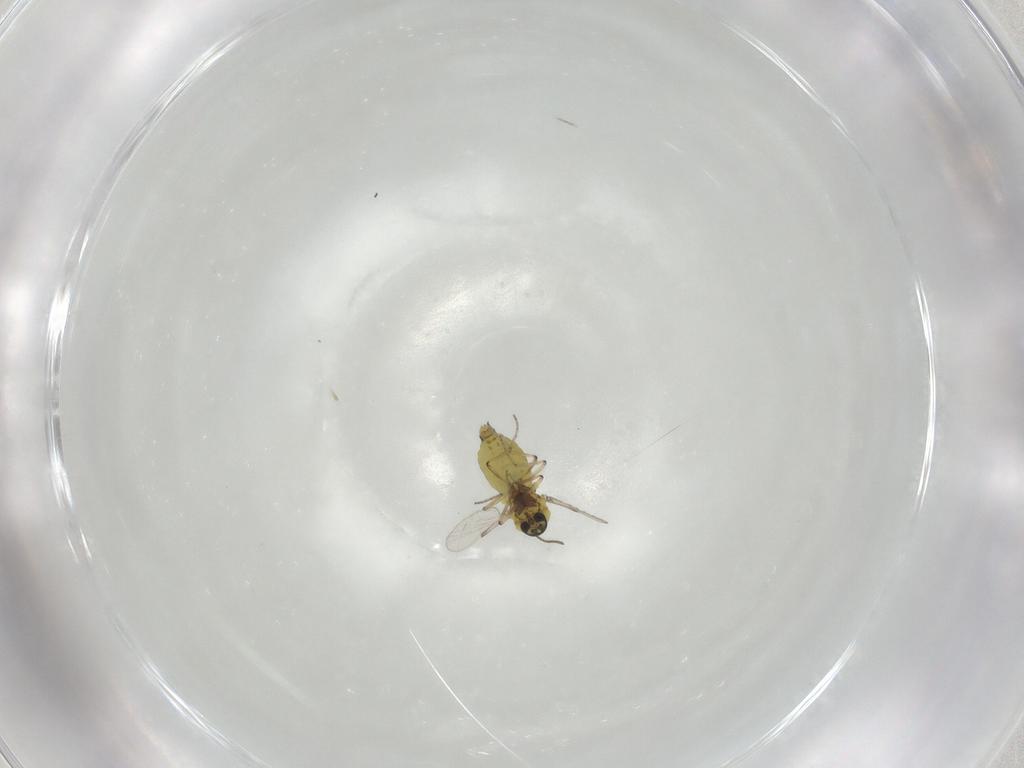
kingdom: Animalia
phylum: Arthropoda
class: Insecta
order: Diptera
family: Ceratopogonidae
